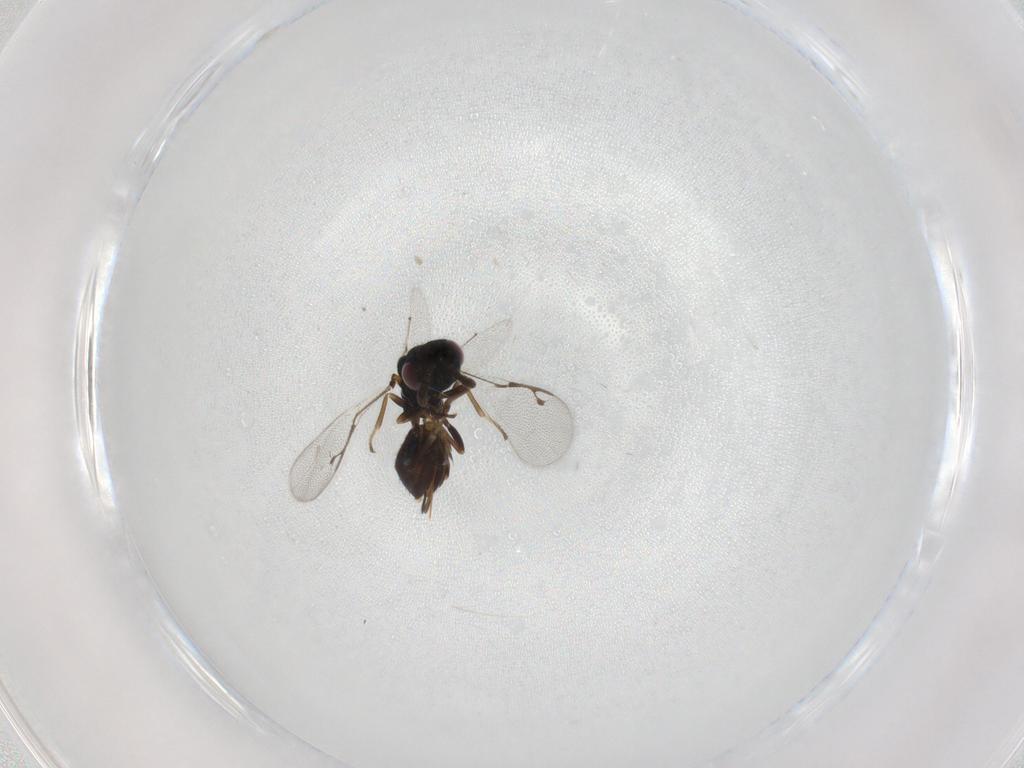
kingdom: Animalia
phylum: Arthropoda
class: Insecta
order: Hymenoptera
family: Pirenidae
